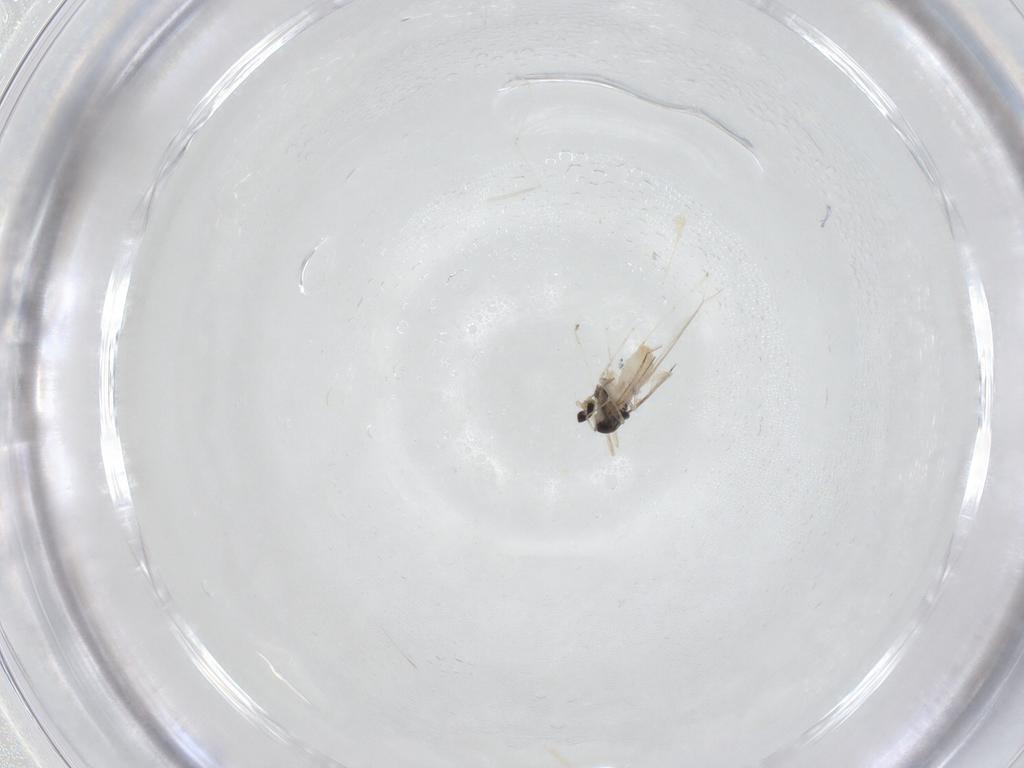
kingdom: Animalia
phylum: Arthropoda
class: Insecta
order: Diptera
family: Cecidomyiidae
